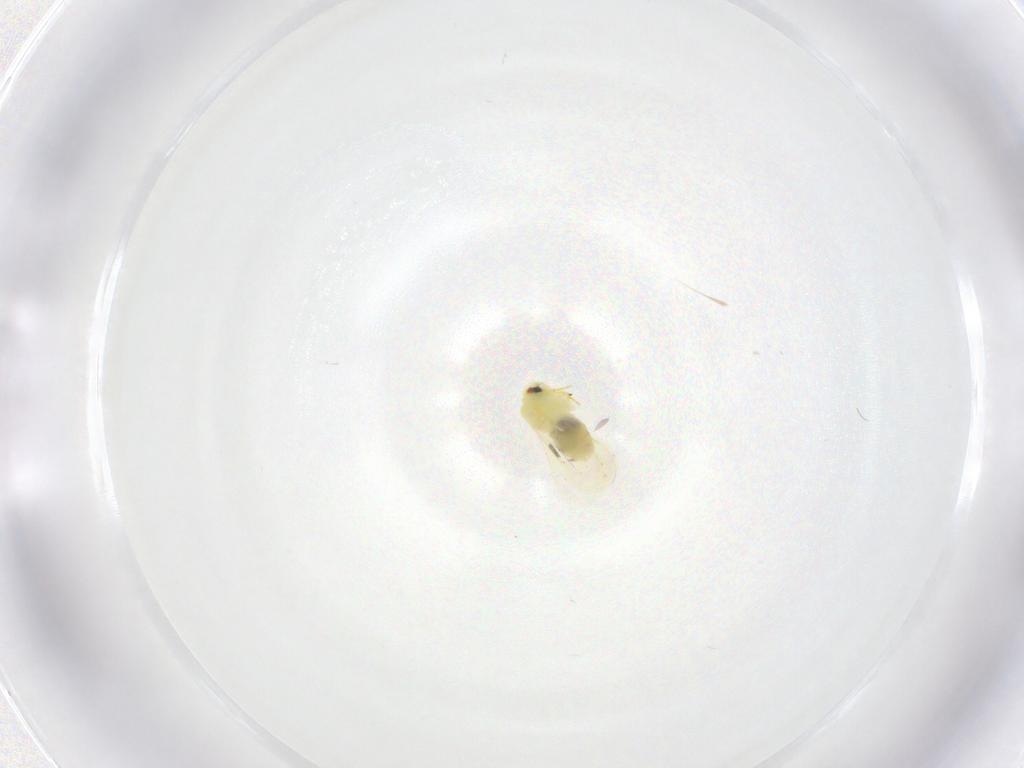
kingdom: Animalia
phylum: Arthropoda
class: Insecta
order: Hemiptera
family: Aleyrodidae
